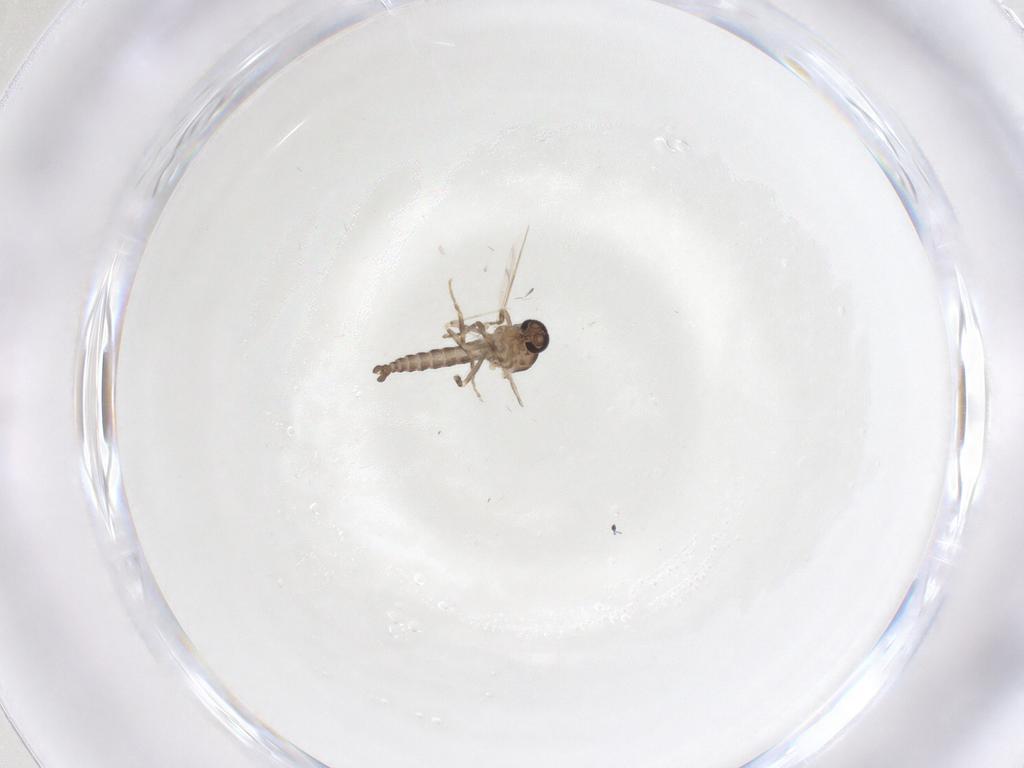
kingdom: Animalia
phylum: Arthropoda
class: Insecta
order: Diptera
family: Ceratopogonidae
